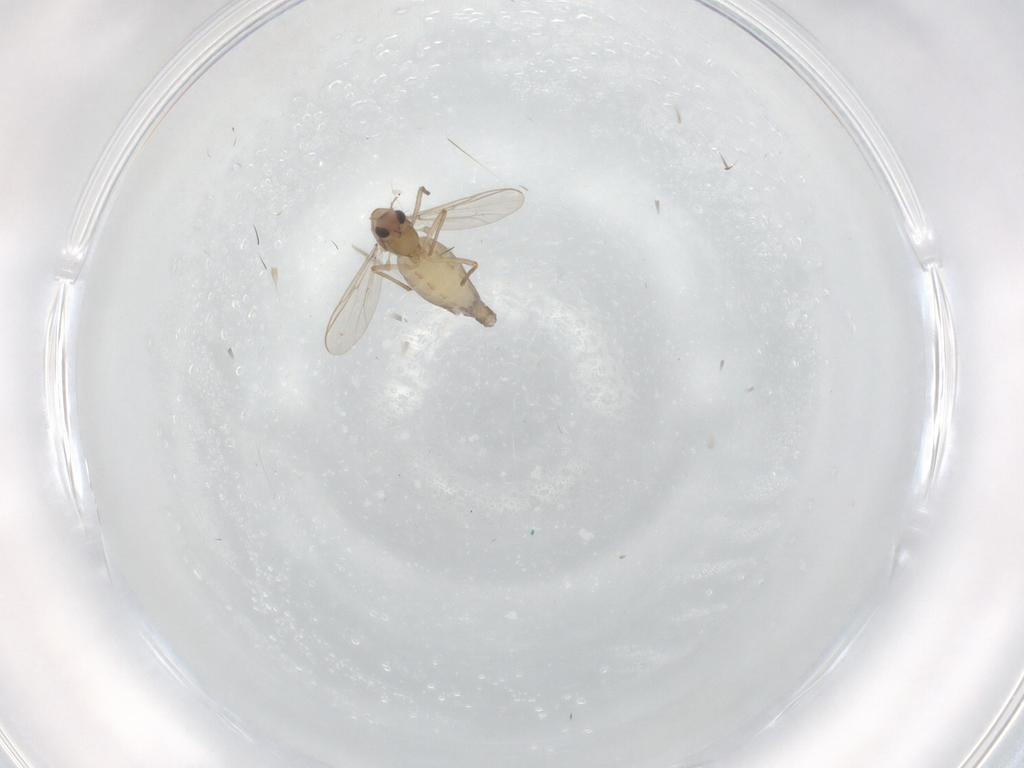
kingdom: Animalia
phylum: Arthropoda
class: Insecta
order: Diptera
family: Chironomidae
